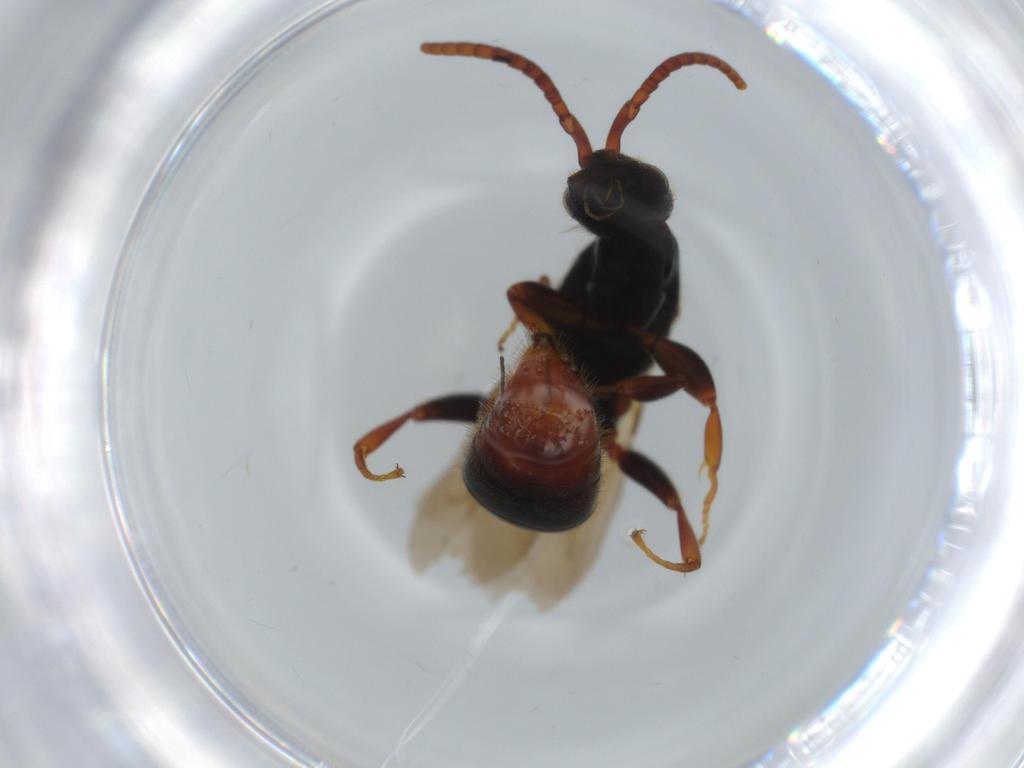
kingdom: Animalia
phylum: Arthropoda
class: Insecta
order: Hymenoptera
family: Bethylidae
